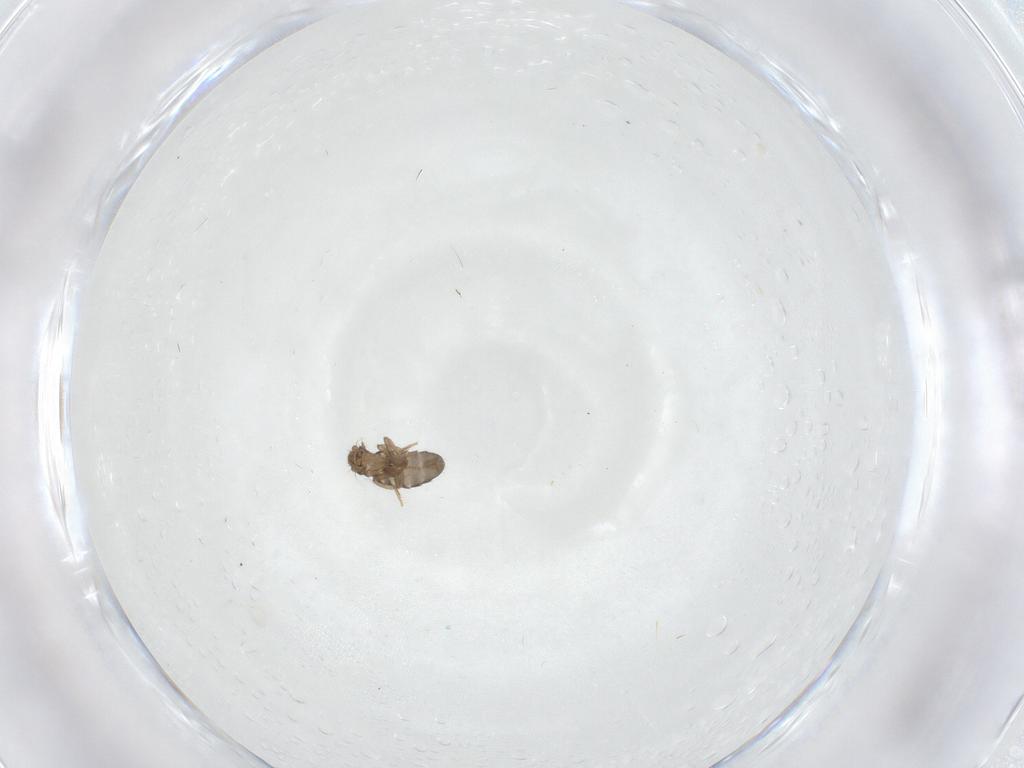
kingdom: Animalia
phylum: Arthropoda
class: Insecta
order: Diptera
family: Phoridae
